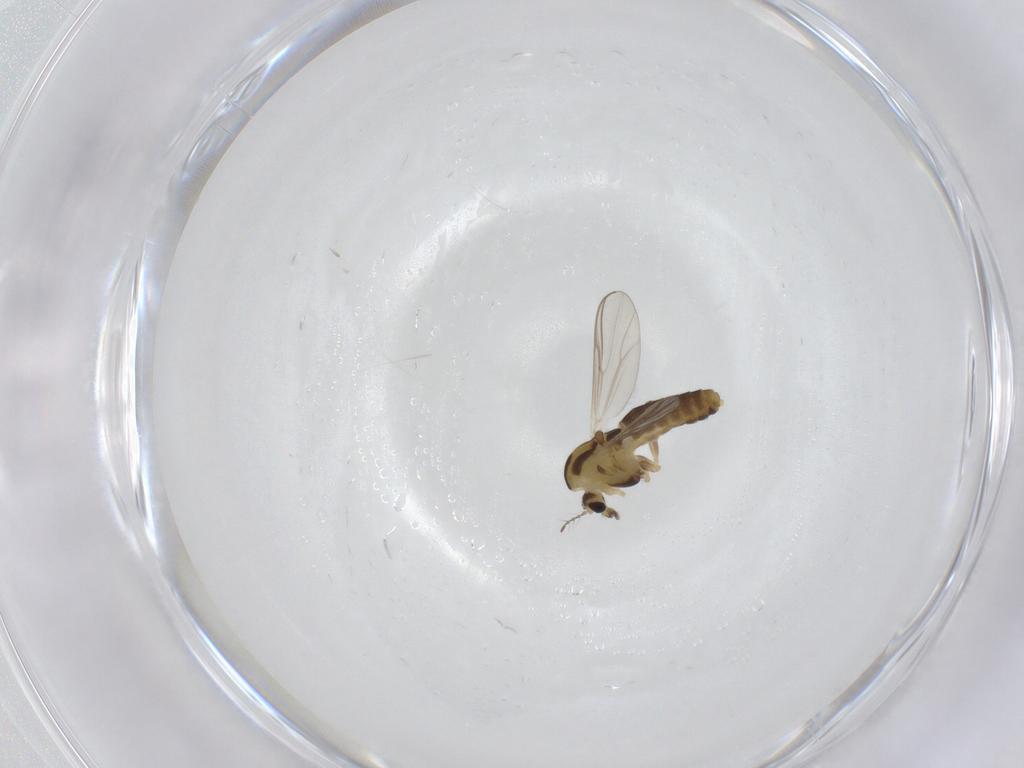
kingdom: Animalia
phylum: Arthropoda
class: Insecta
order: Diptera
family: Chironomidae
